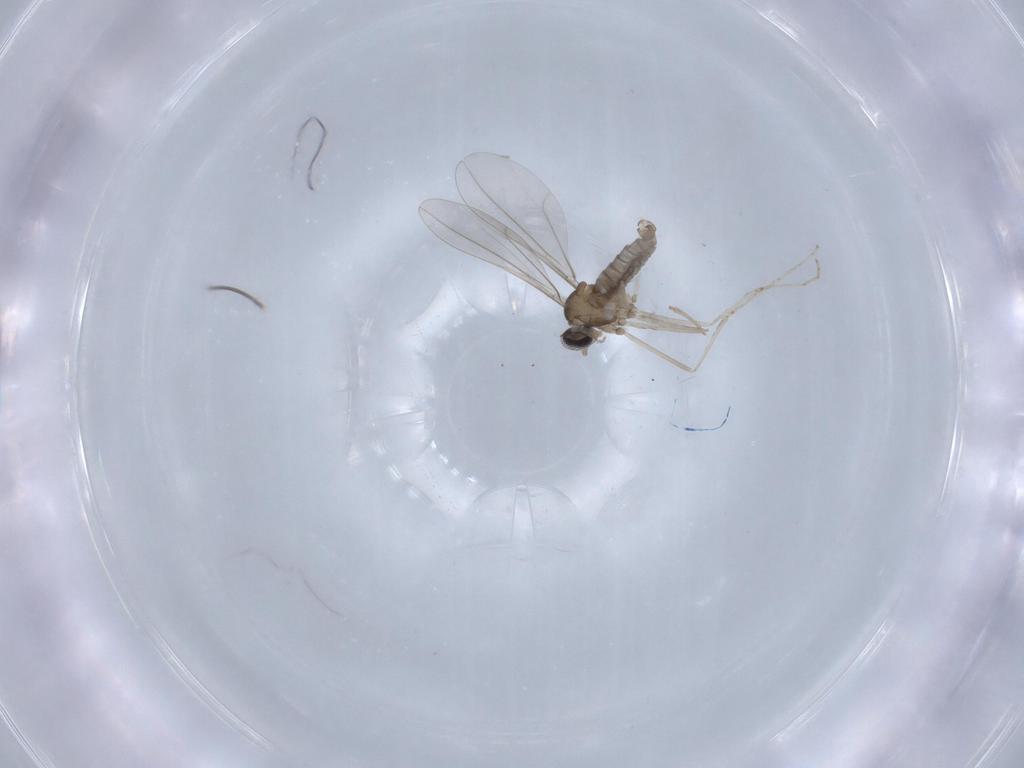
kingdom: Animalia
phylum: Arthropoda
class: Insecta
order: Diptera
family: Cecidomyiidae
